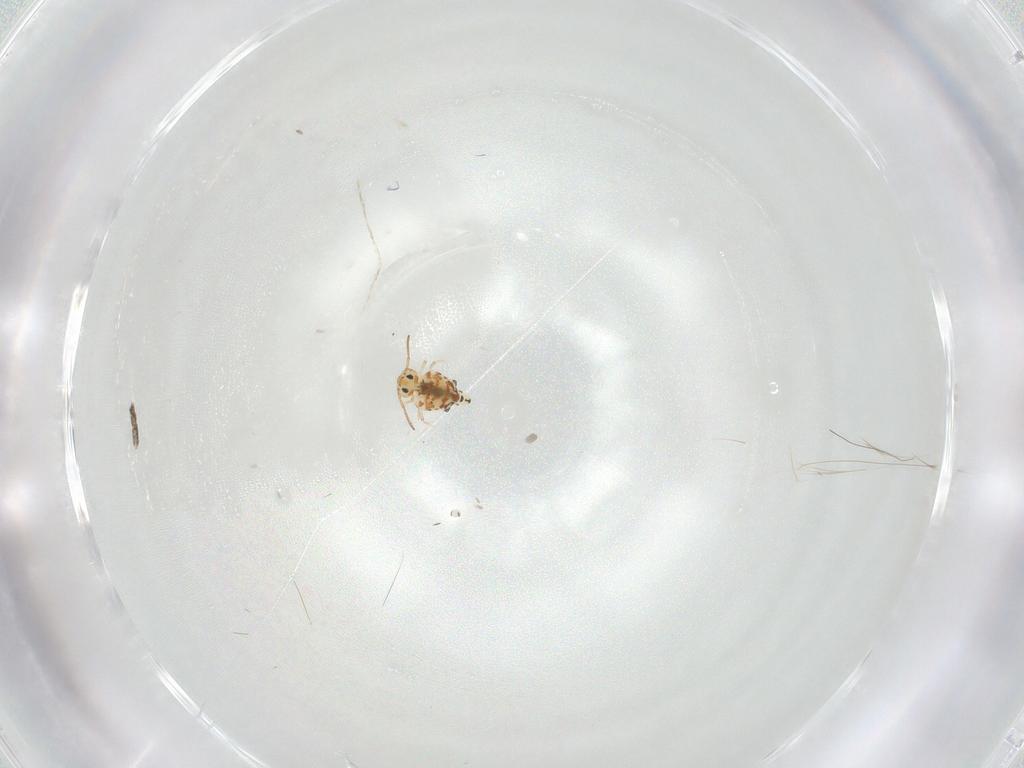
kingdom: Animalia
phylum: Arthropoda
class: Collembola
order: Symphypleona
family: Bourletiellidae
